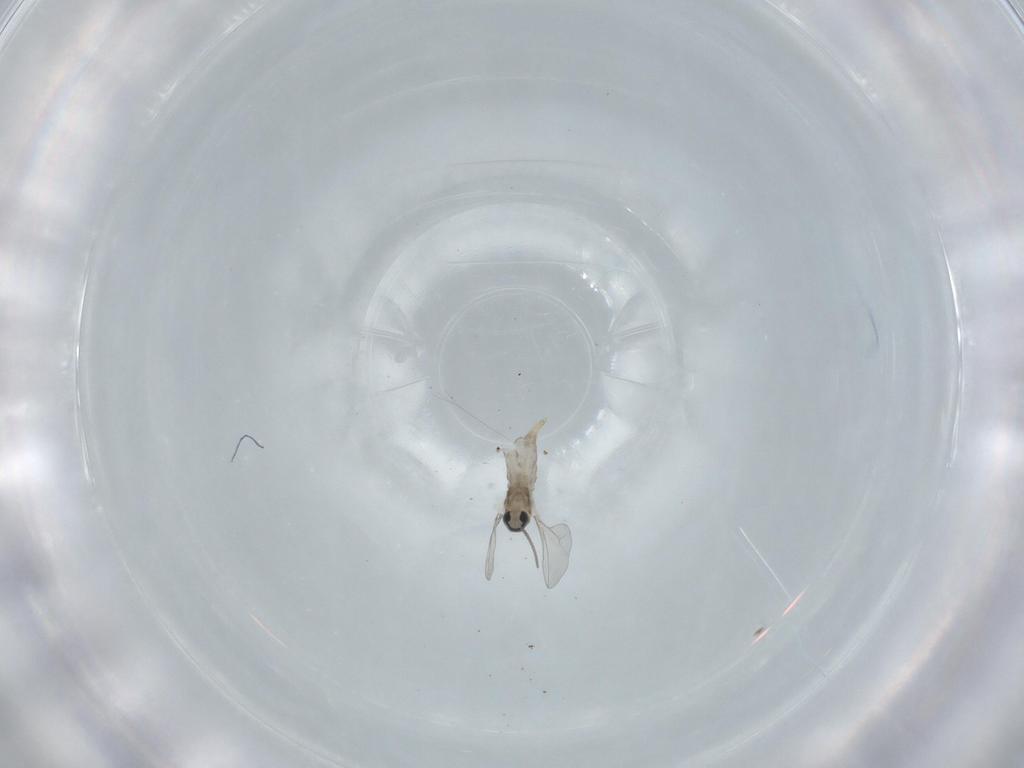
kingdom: Animalia
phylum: Arthropoda
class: Insecta
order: Diptera
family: Cecidomyiidae
